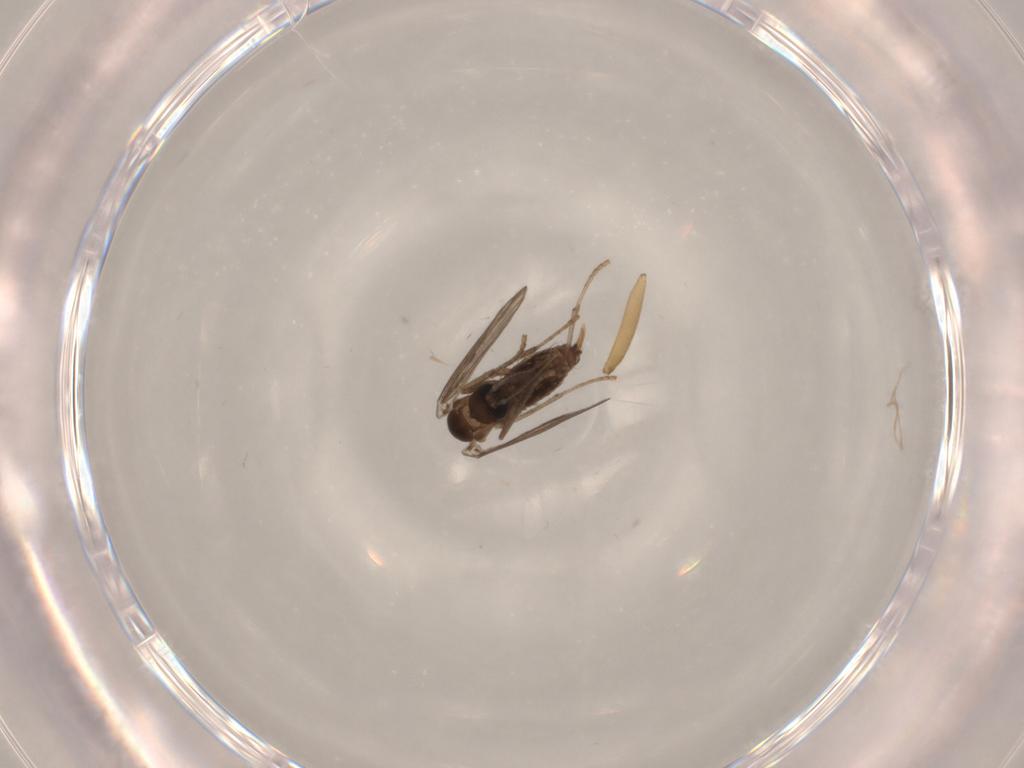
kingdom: Animalia
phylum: Arthropoda
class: Insecta
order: Diptera
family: Psychodidae
